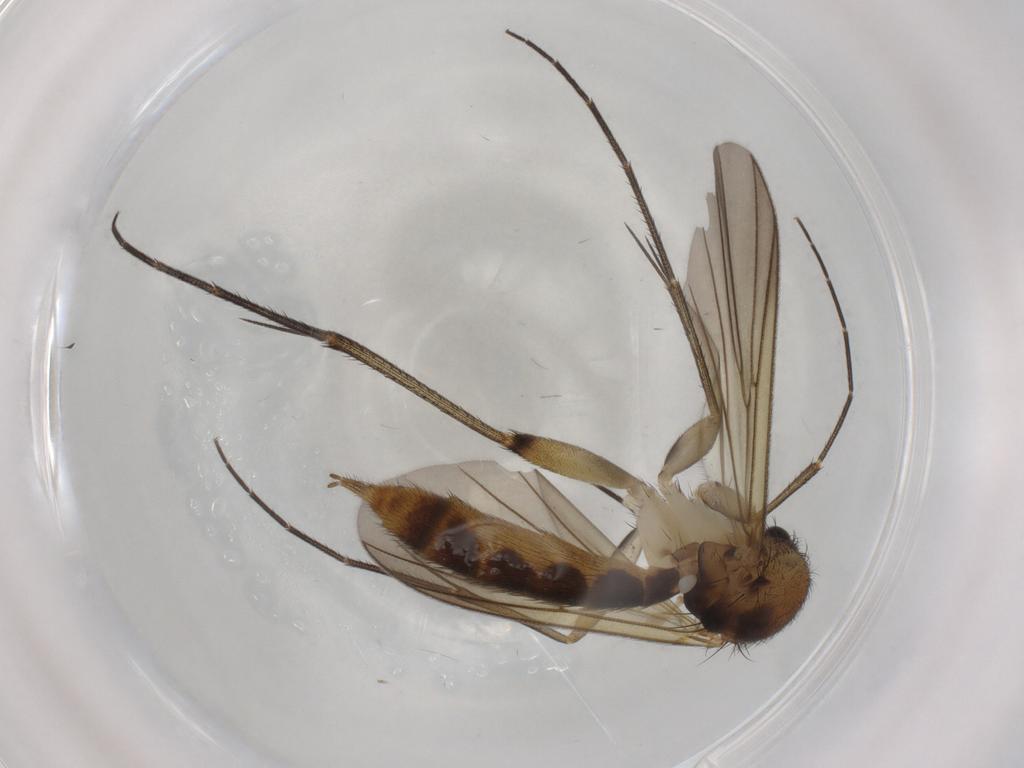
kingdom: Animalia
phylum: Arthropoda
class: Insecta
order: Diptera
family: Mycetophilidae
